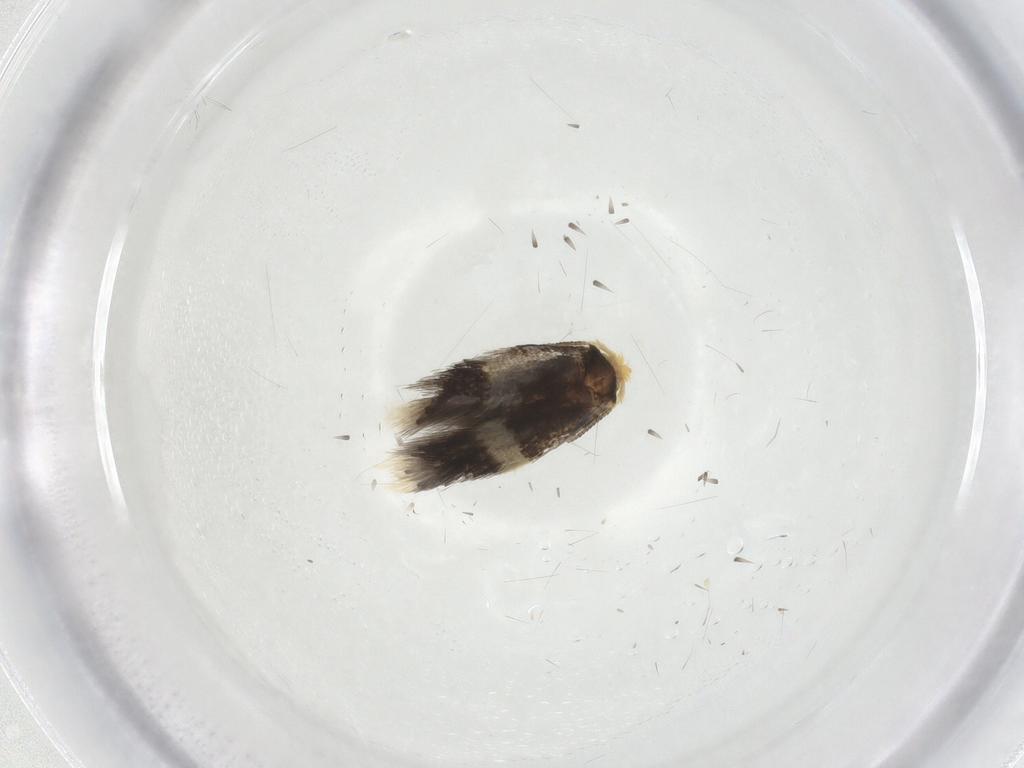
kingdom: Animalia
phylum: Arthropoda
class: Insecta
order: Lepidoptera
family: Nepticulidae
